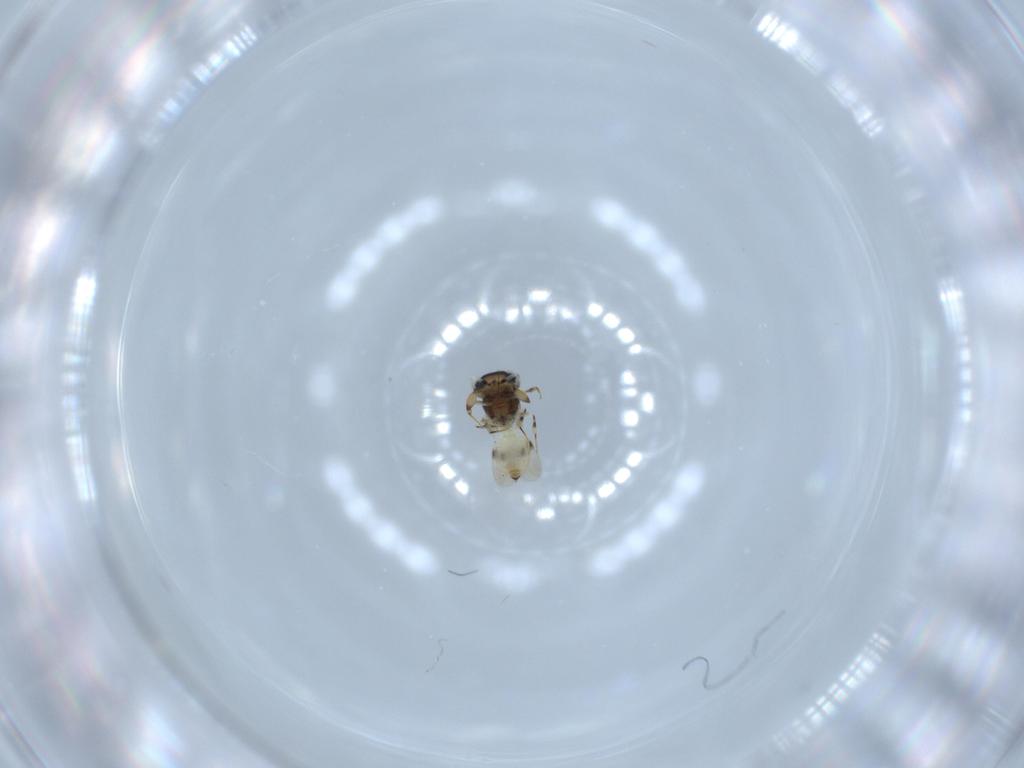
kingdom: Animalia
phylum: Arthropoda
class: Insecta
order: Hymenoptera
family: Scelionidae
